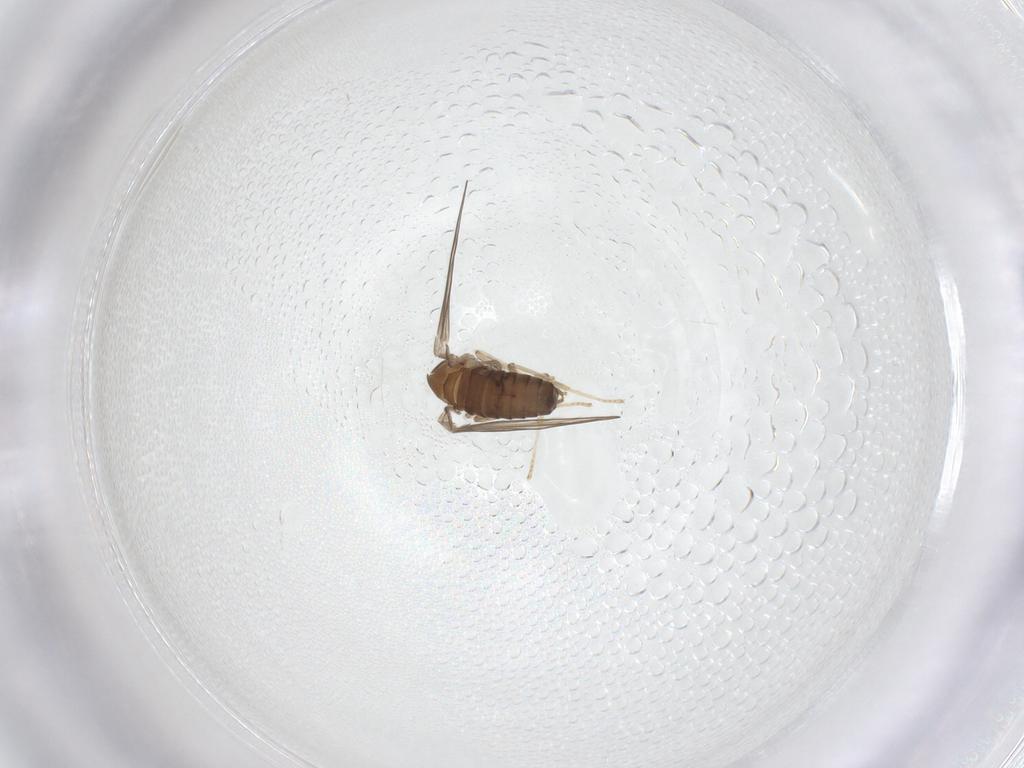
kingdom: Animalia
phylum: Arthropoda
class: Insecta
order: Diptera
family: Psychodidae
